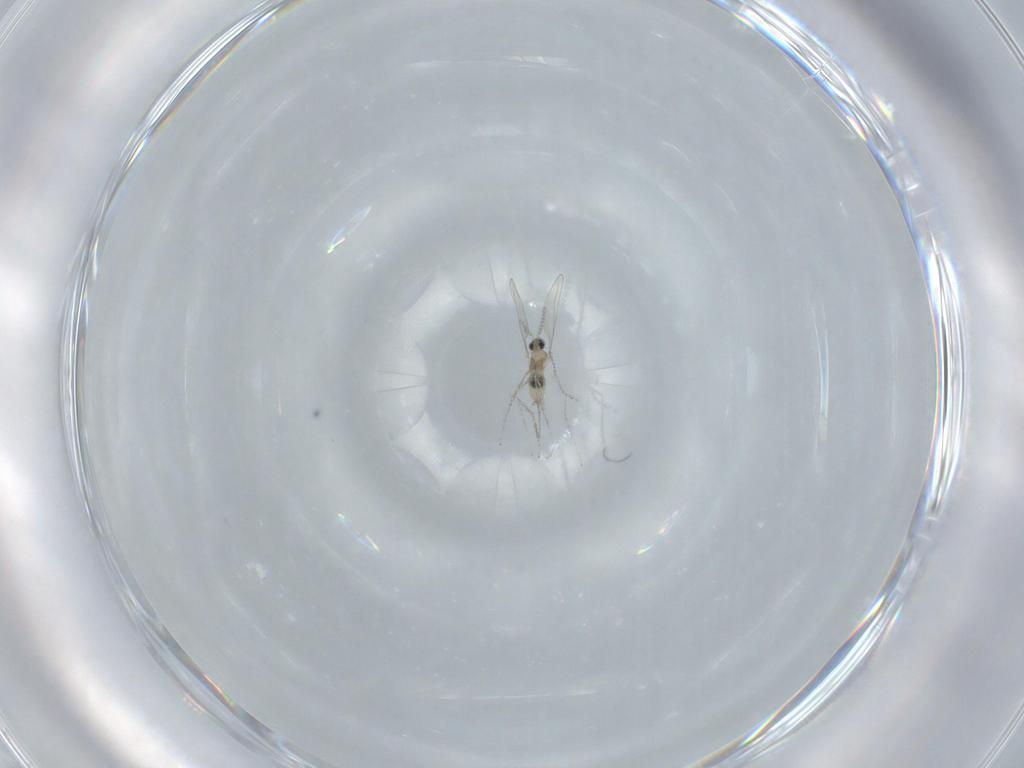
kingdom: Animalia
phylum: Arthropoda
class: Insecta
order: Diptera
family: Cecidomyiidae
